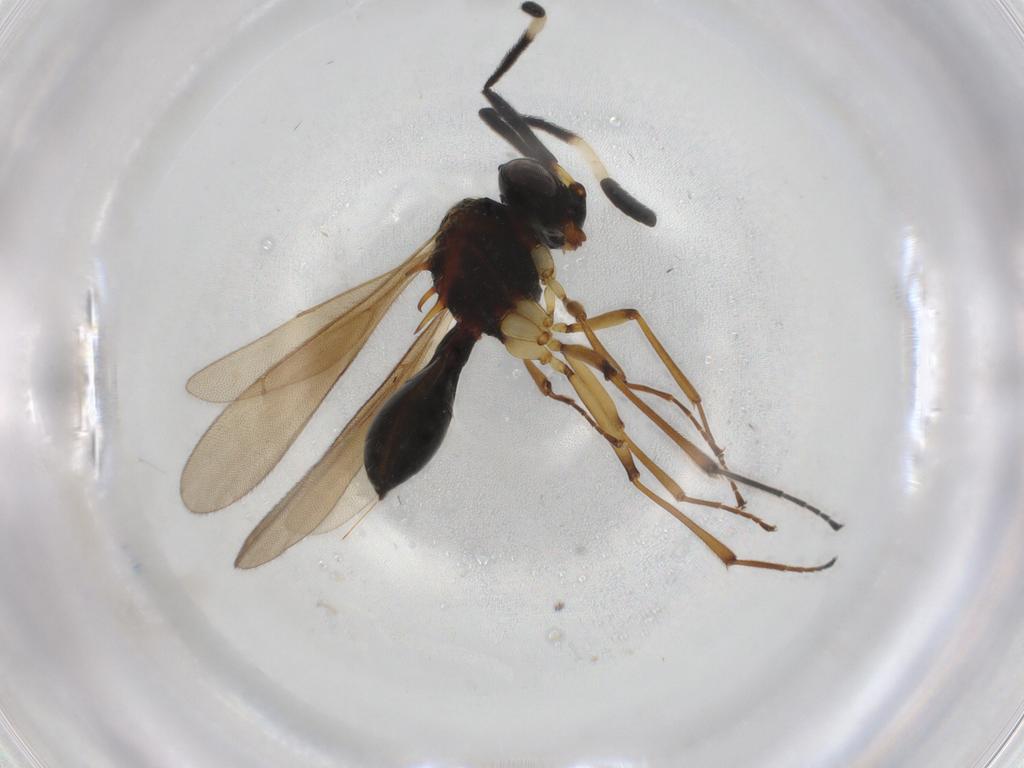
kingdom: Animalia
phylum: Arthropoda
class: Insecta
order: Hymenoptera
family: Scelionidae
